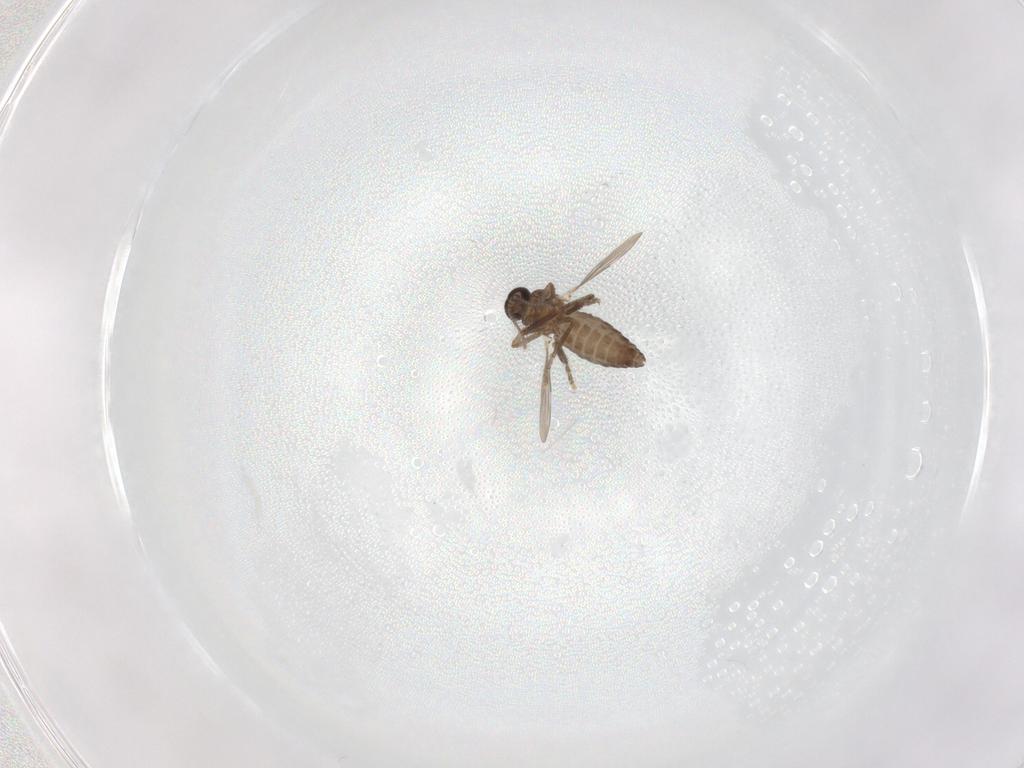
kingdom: Animalia
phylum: Arthropoda
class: Insecta
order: Diptera
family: Ceratopogonidae
